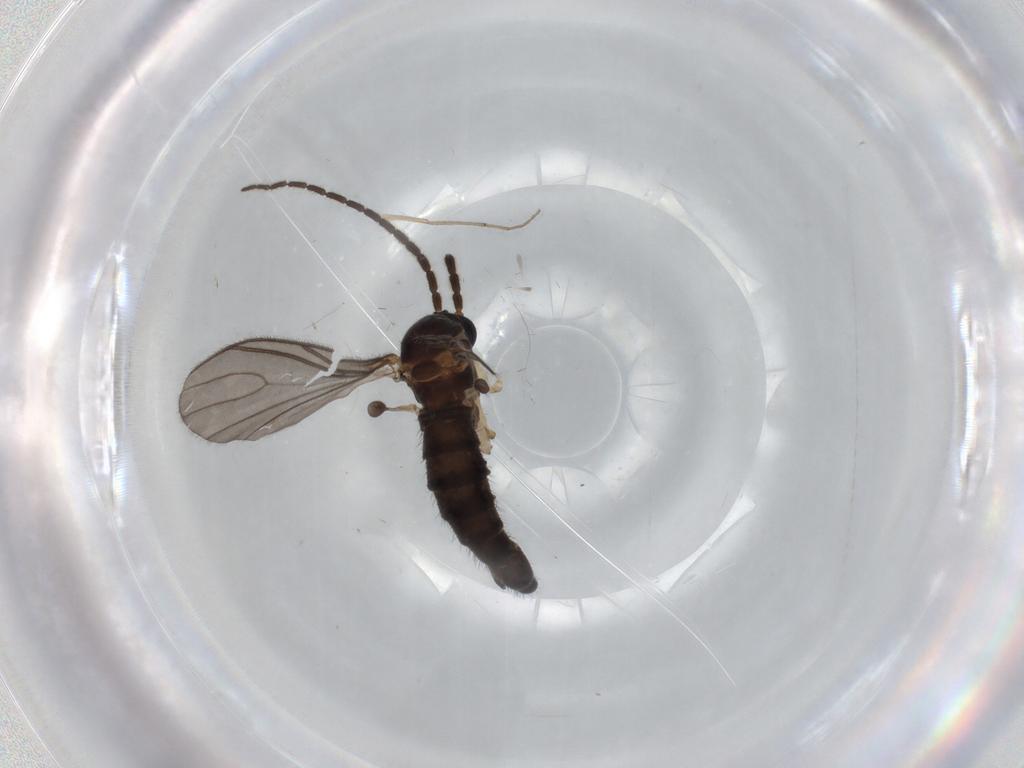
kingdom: Animalia
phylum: Arthropoda
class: Insecta
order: Diptera
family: Sciaridae
